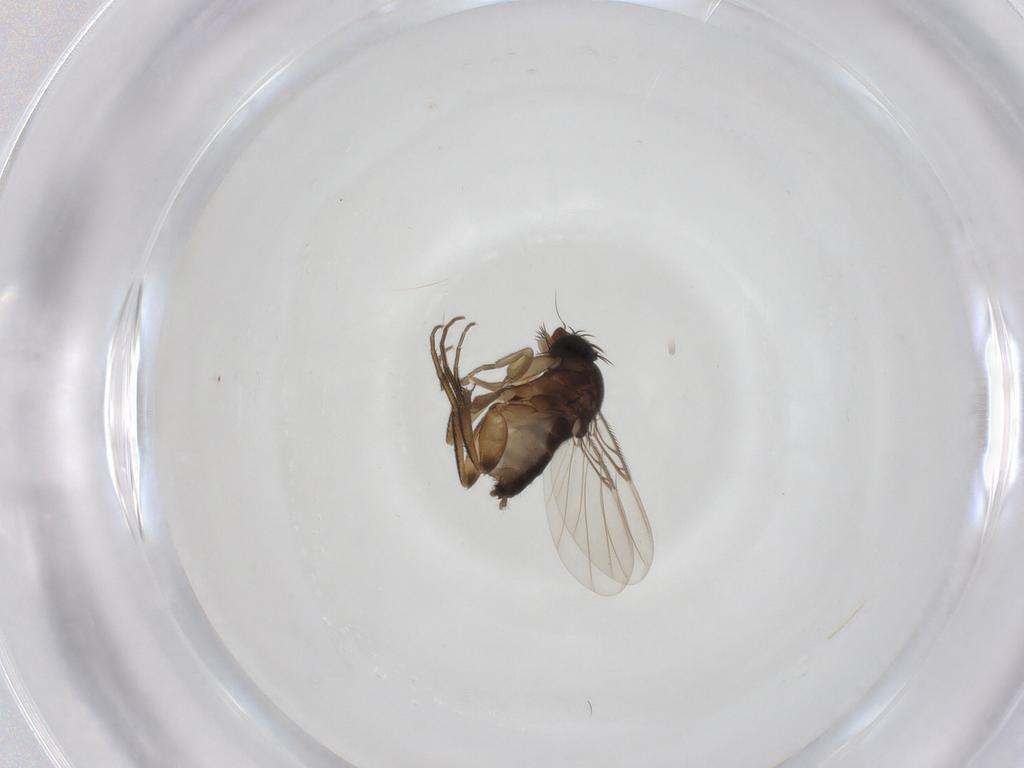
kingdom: Animalia
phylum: Arthropoda
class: Insecta
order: Diptera
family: Phoridae
